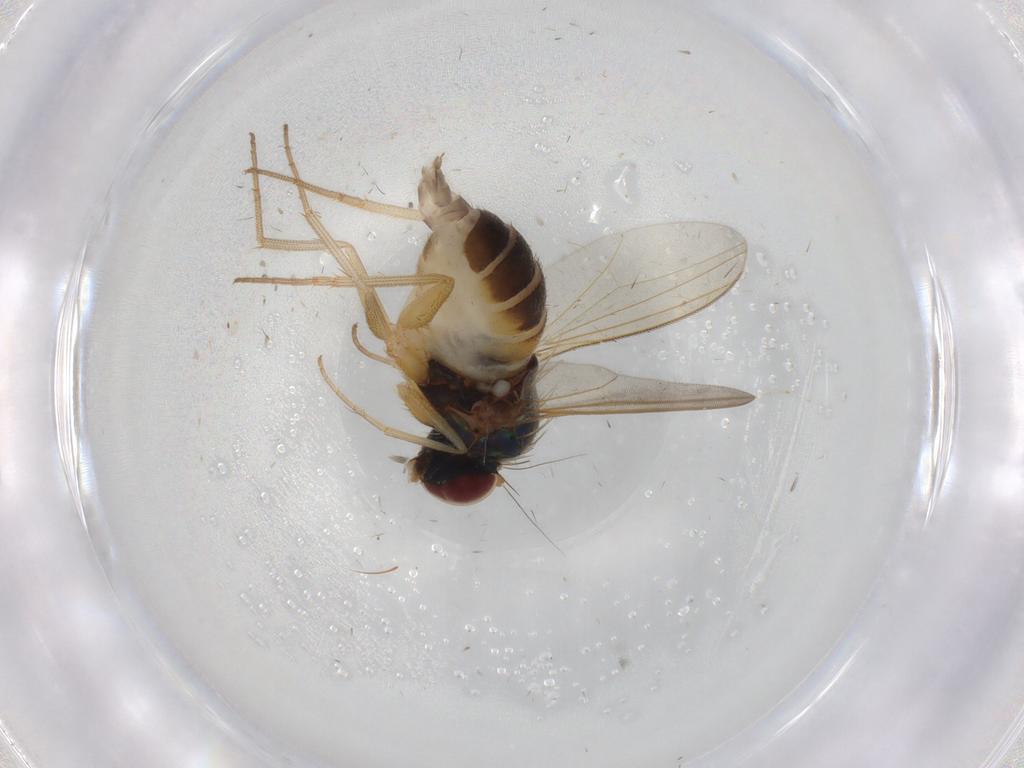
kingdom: Animalia
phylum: Arthropoda
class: Insecta
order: Diptera
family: Dolichopodidae
